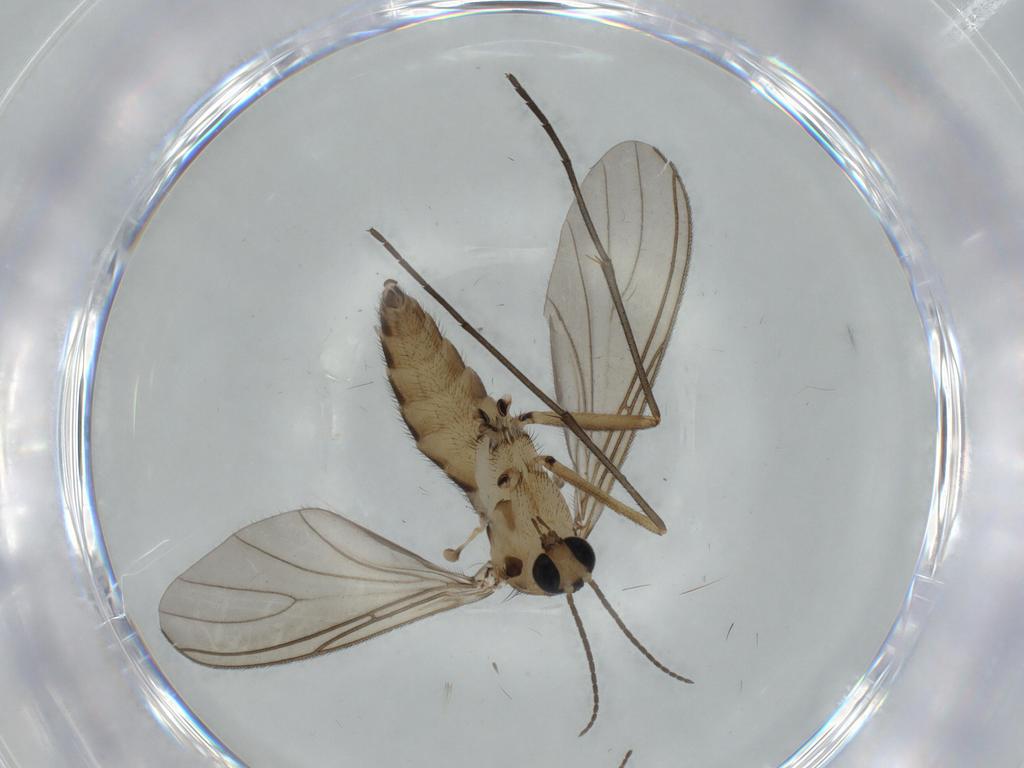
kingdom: Animalia
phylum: Arthropoda
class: Insecta
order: Diptera
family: Sciaridae
